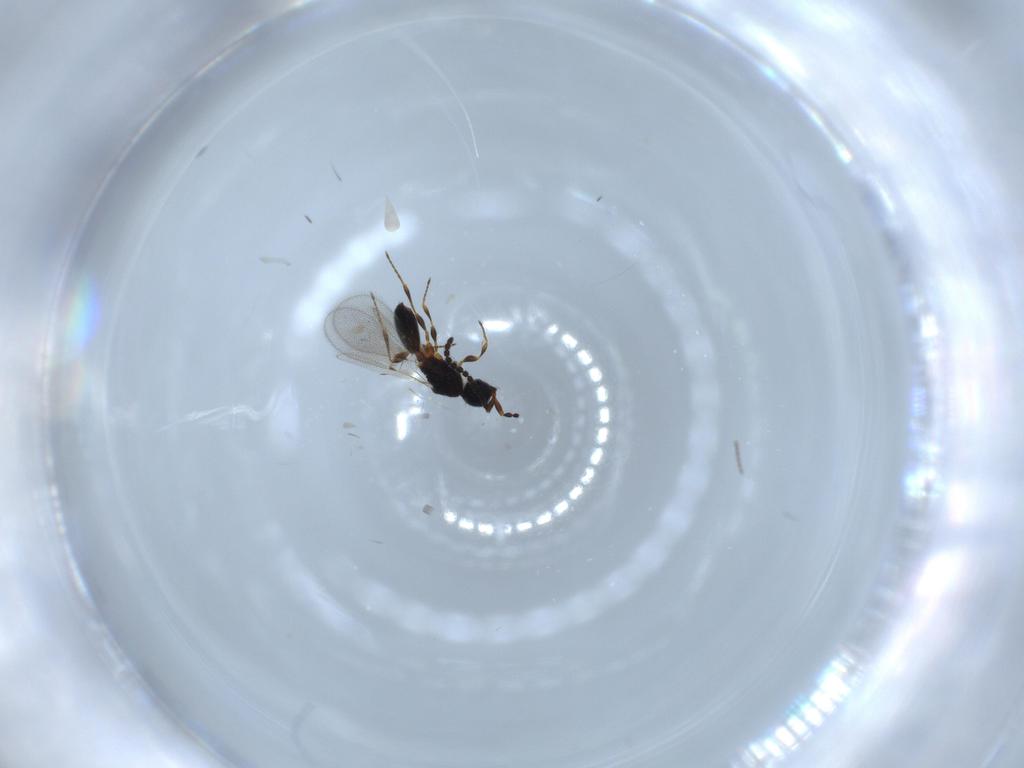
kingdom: Animalia
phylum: Arthropoda
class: Insecta
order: Hymenoptera
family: Diapriidae
